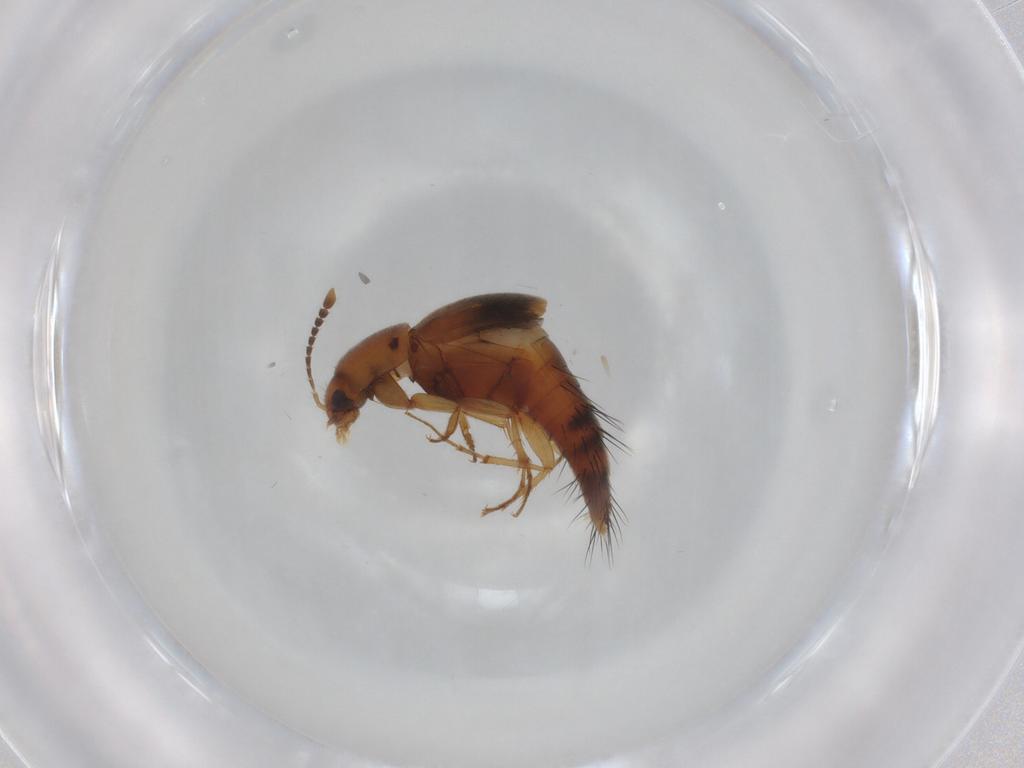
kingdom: Animalia
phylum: Arthropoda
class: Insecta
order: Coleoptera
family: Staphylinidae
